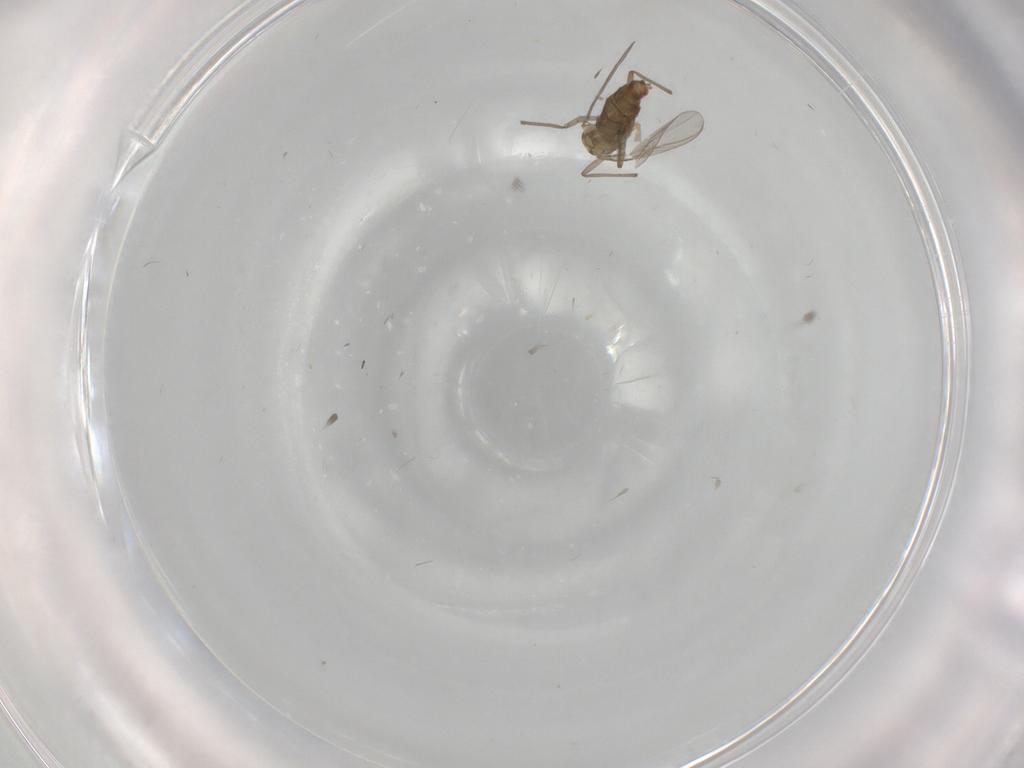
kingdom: Animalia
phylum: Arthropoda
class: Insecta
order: Diptera
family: Chironomidae
